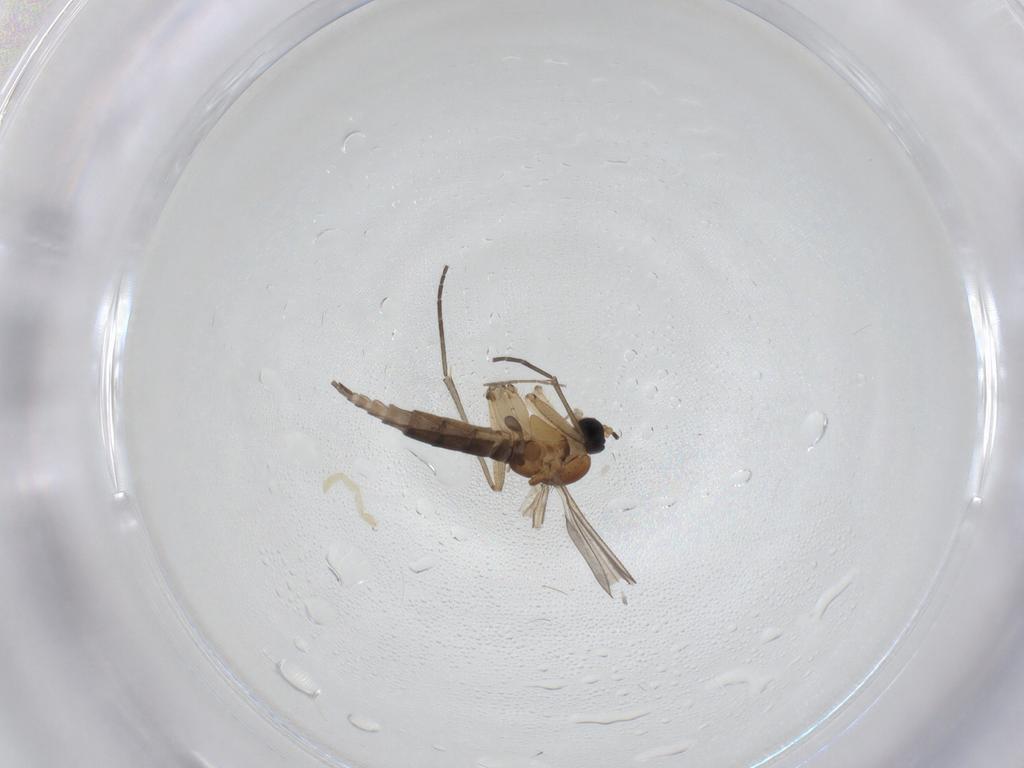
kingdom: Animalia
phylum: Arthropoda
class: Insecta
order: Diptera
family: Sciaridae
